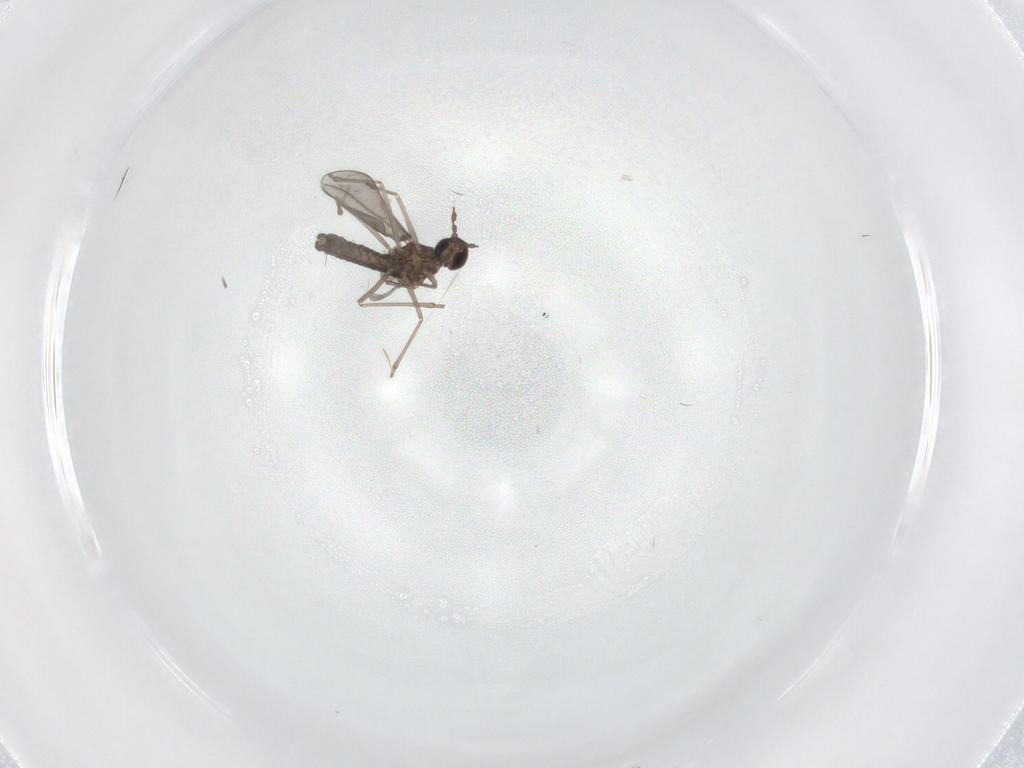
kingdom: Animalia
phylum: Arthropoda
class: Insecta
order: Diptera
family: Cecidomyiidae
